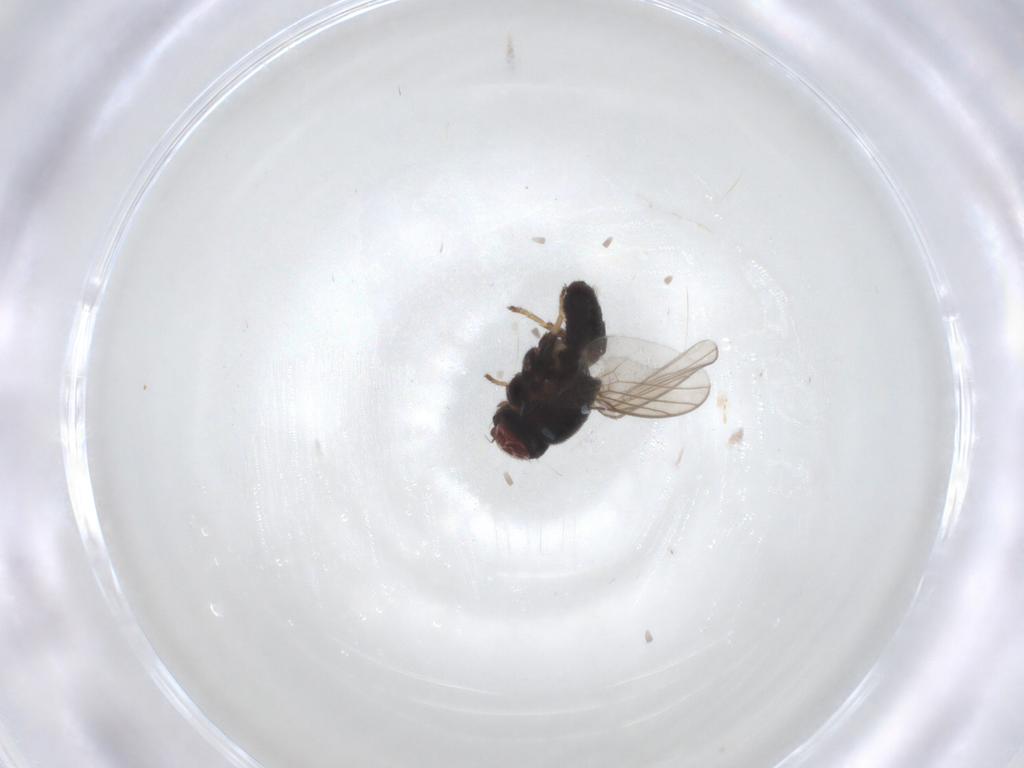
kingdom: Animalia
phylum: Arthropoda
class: Insecta
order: Diptera
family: Chloropidae
